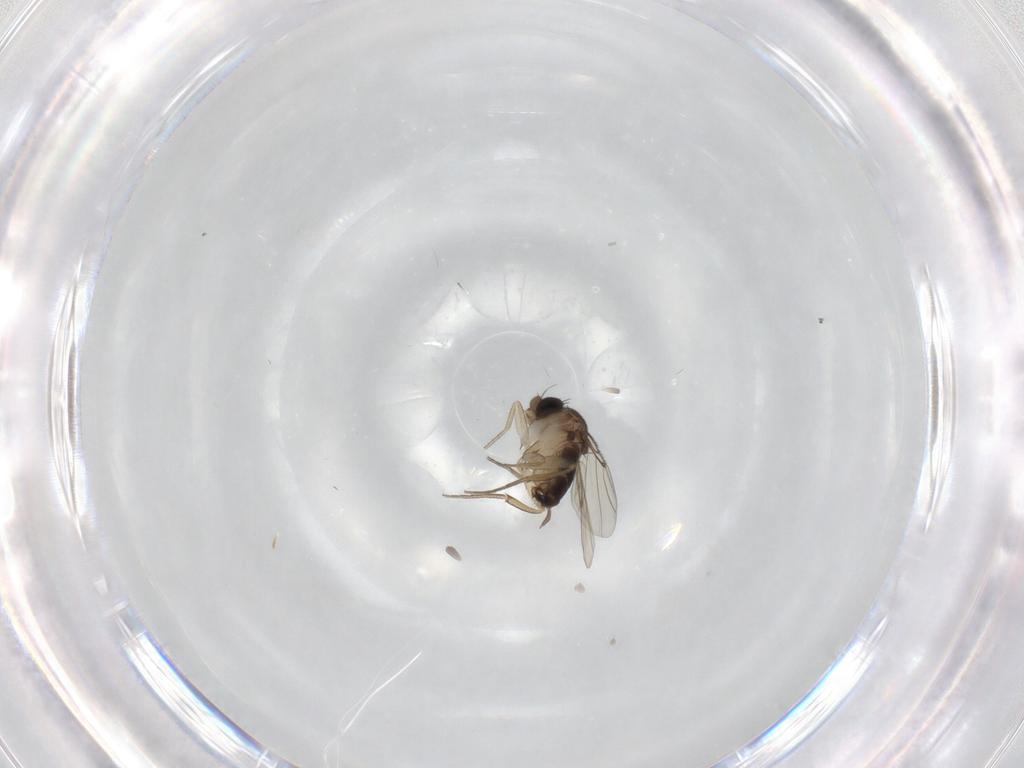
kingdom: Animalia
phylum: Arthropoda
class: Insecta
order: Diptera
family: Cecidomyiidae
